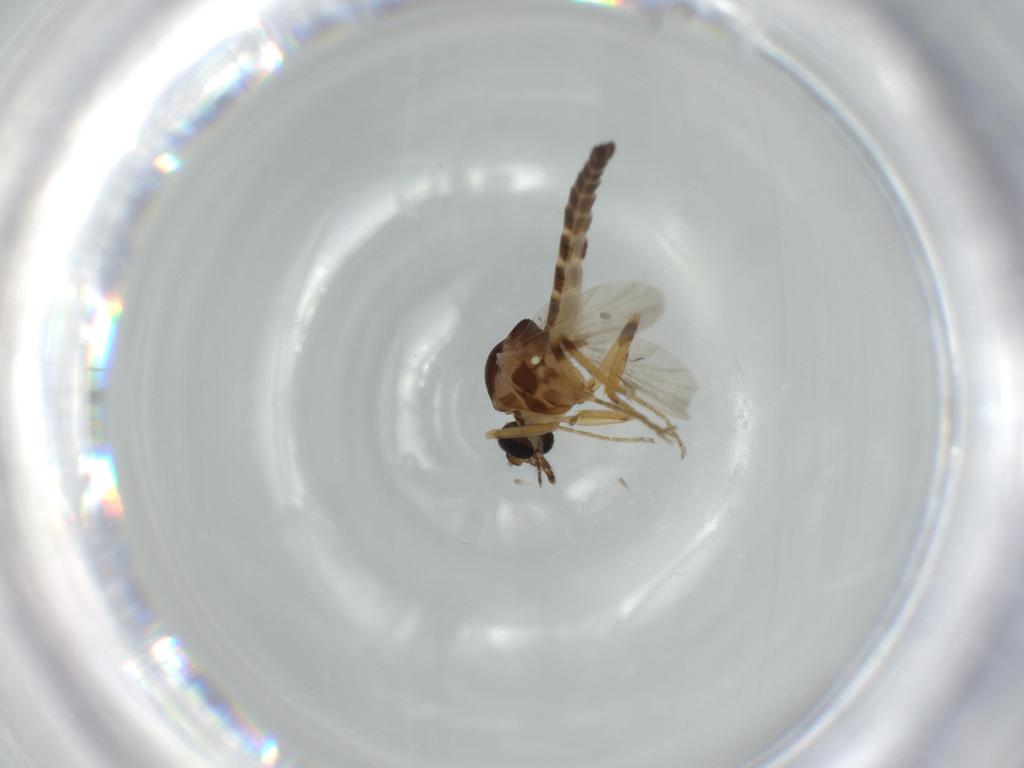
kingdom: Animalia
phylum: Arthropoda
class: Insecta
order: Diptera
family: Ceratopogonidae
